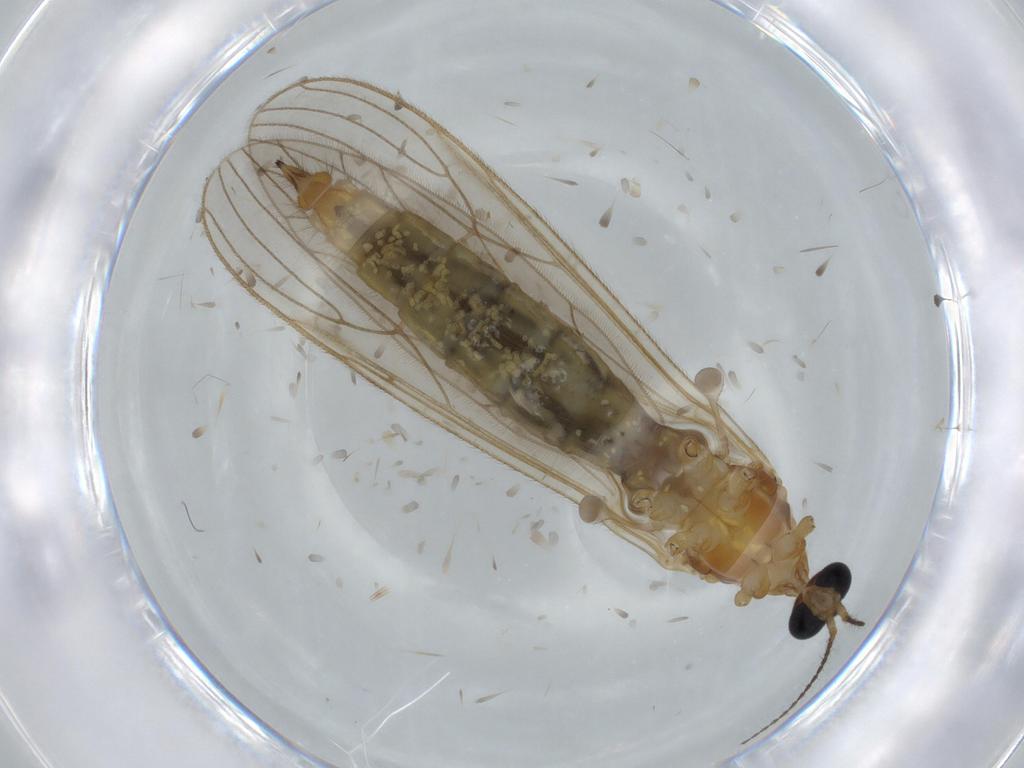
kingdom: Animalia
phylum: Arthropoda
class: Insecta
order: Diptera
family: Limoniidae
